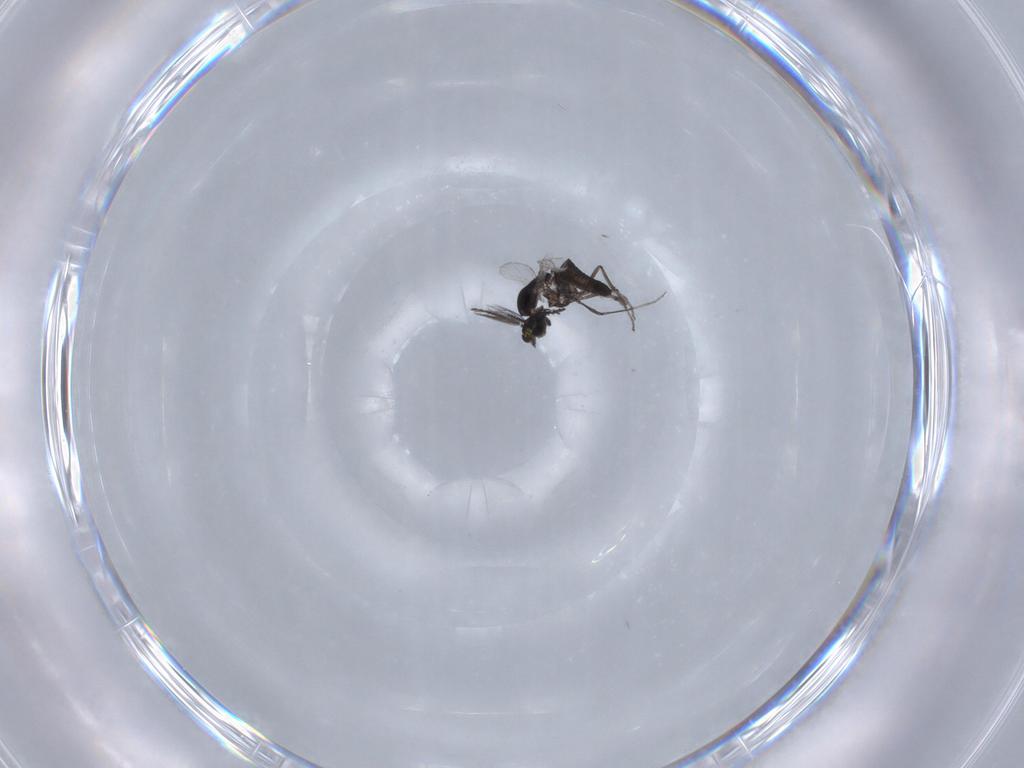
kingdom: Animalia
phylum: Arthropoda
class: Insecta
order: Diptera
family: Ceratopogonidae
